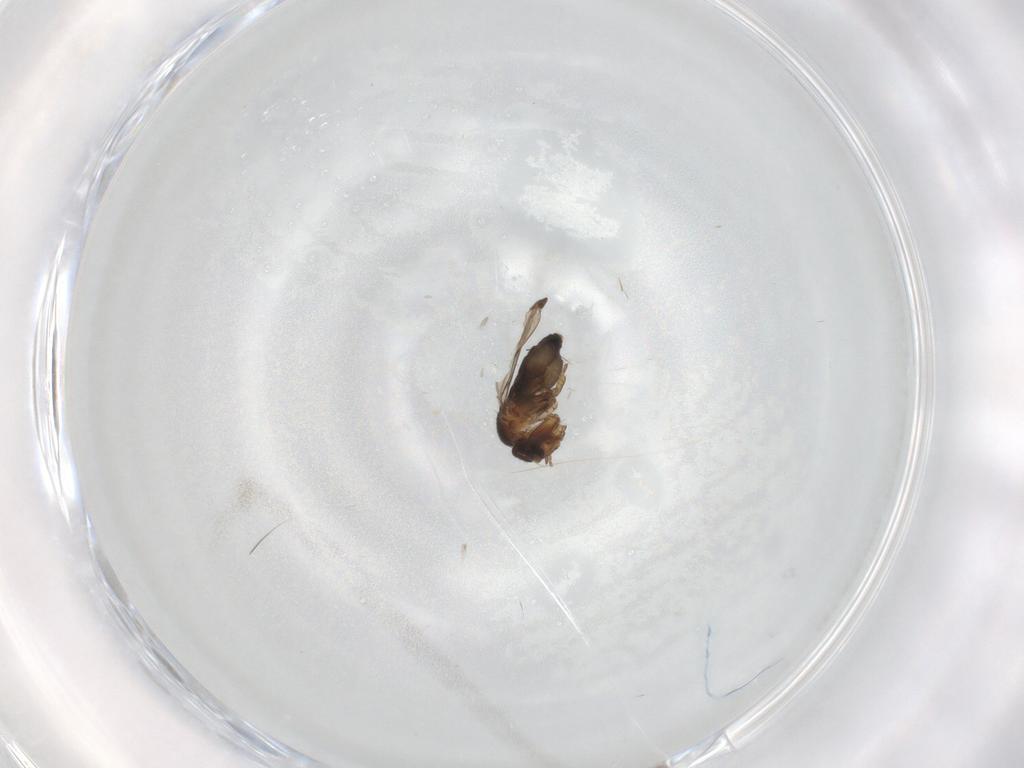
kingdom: Animalia
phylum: Arthropoda
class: Insecta
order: Diptera
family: Phoridae
